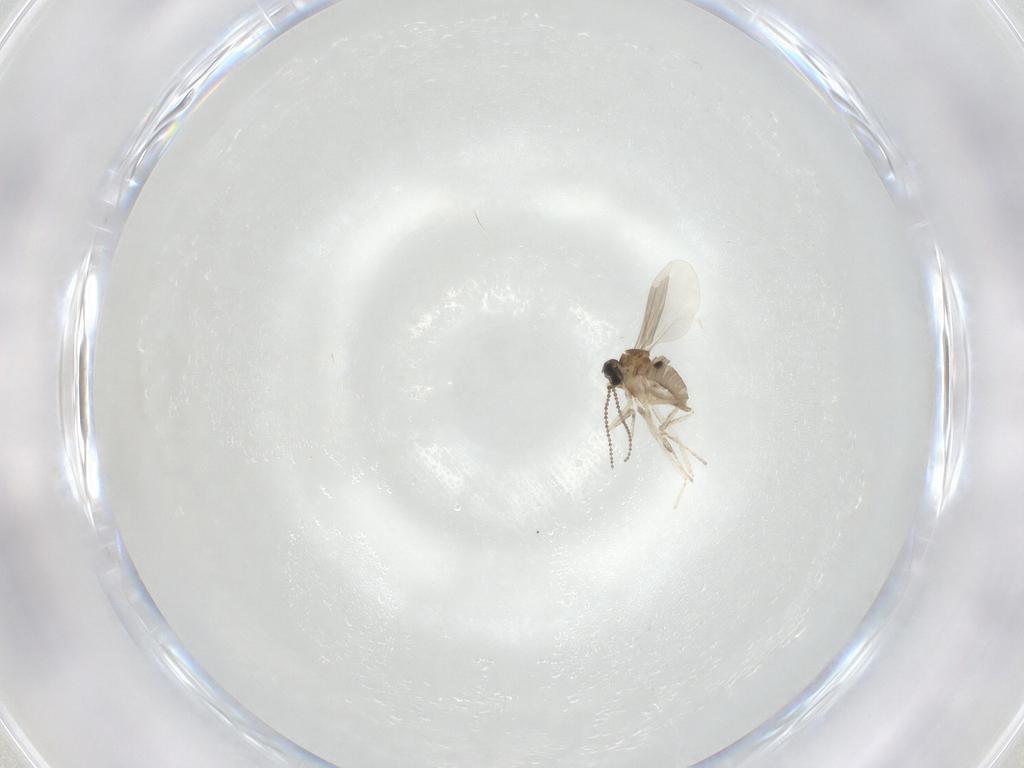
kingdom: Animalia
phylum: Arthropoda
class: Insecta
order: Diptera
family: Cecidomyiidae
